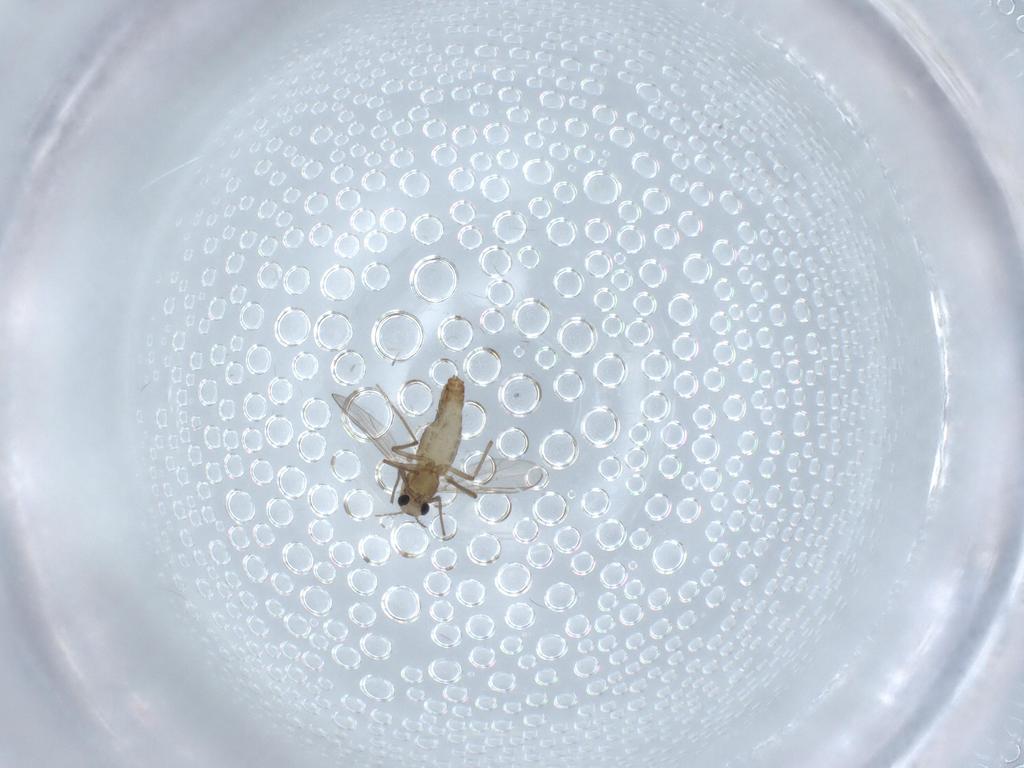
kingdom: Animalia
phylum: Arthropoda
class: Insecta
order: Diptera
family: Chironomidae
